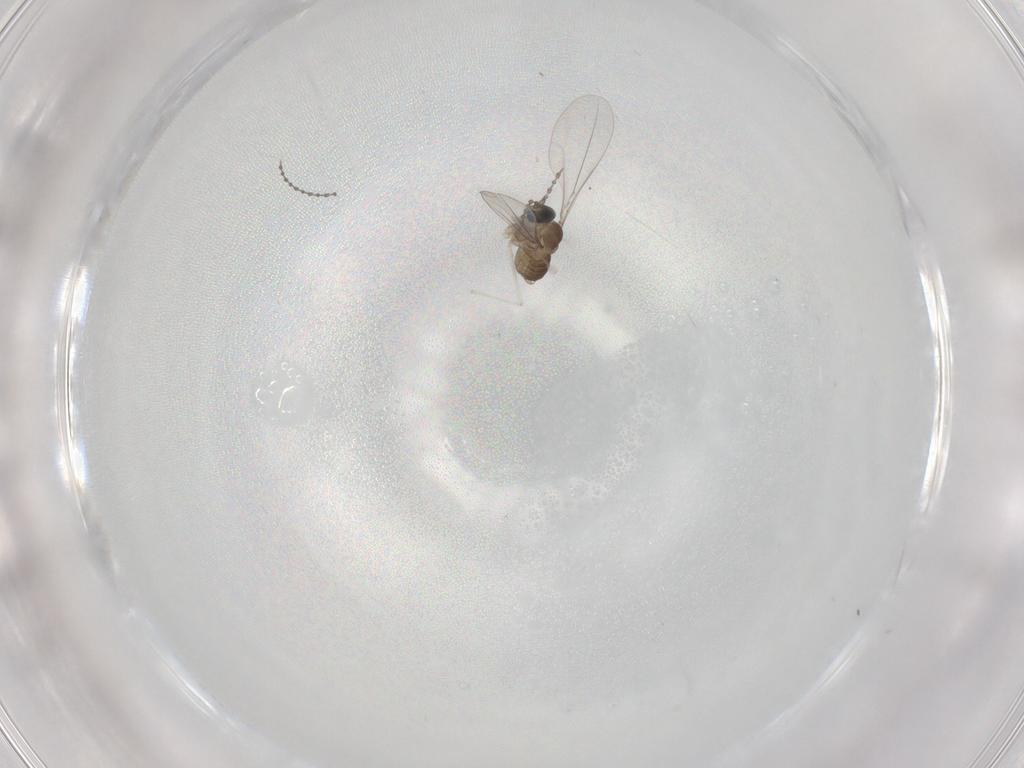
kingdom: Animalia
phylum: Arthropoda
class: Insecta
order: Diptera
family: Cecidomyiidae
